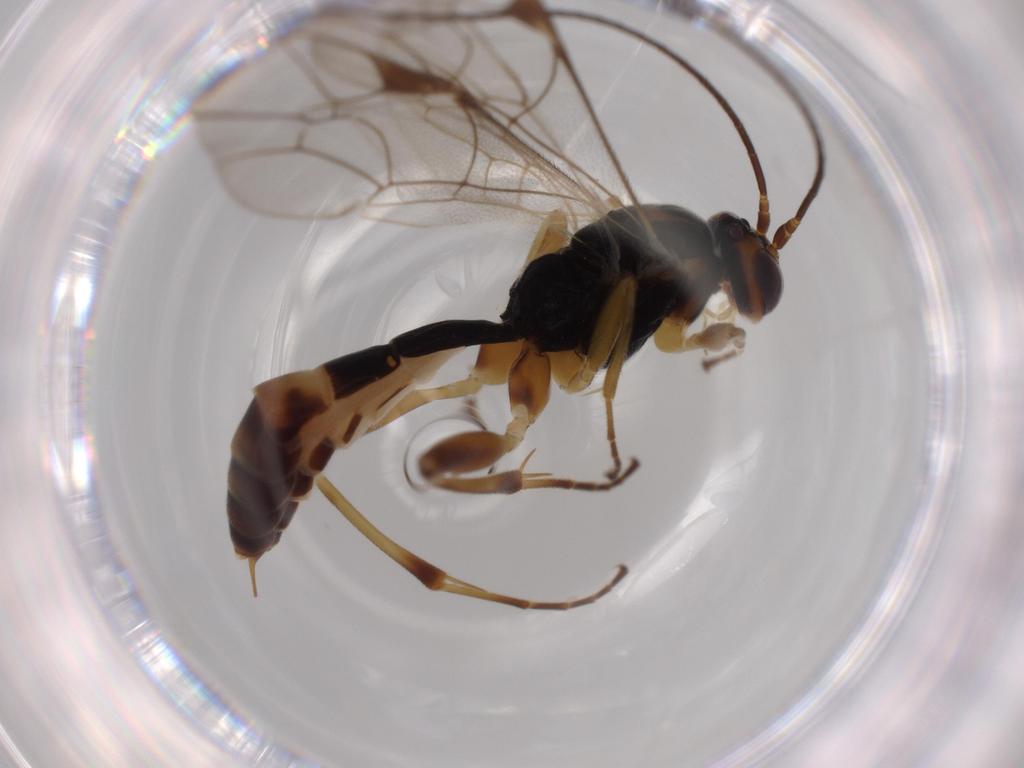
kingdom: Animalia
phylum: Arthropoda
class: Insecta
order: Hymenoptera
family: Ichneumonidae
